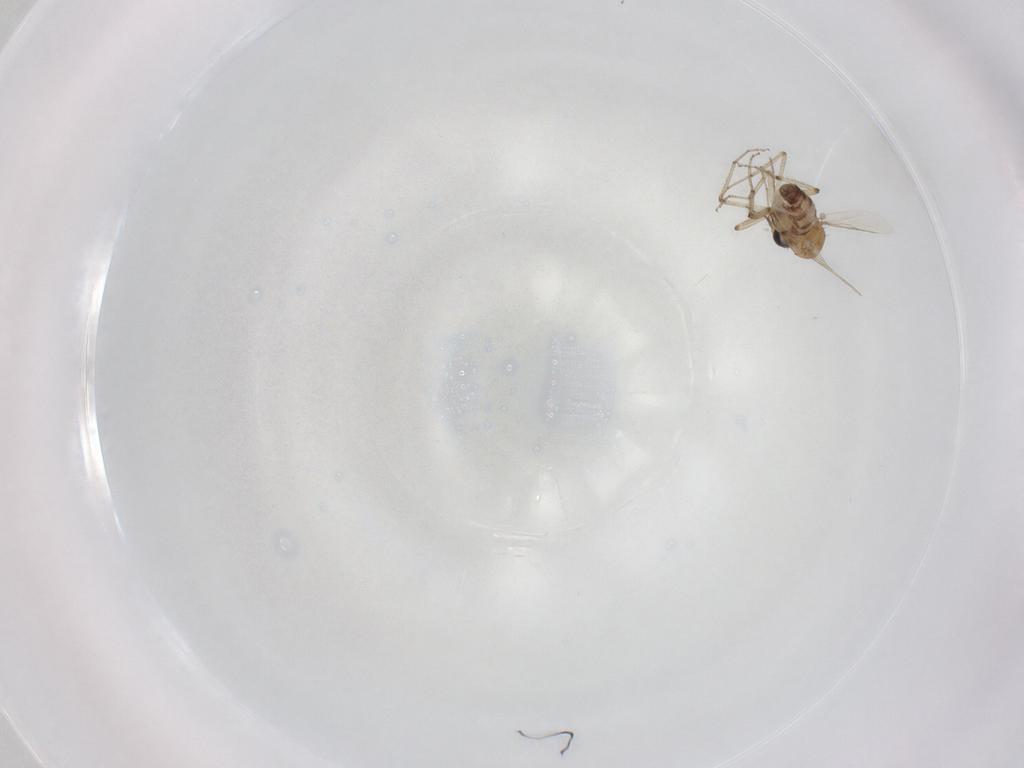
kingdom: Animalia
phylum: Arthropoda
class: Insecta
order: Diptera
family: Ceratopogonidae
